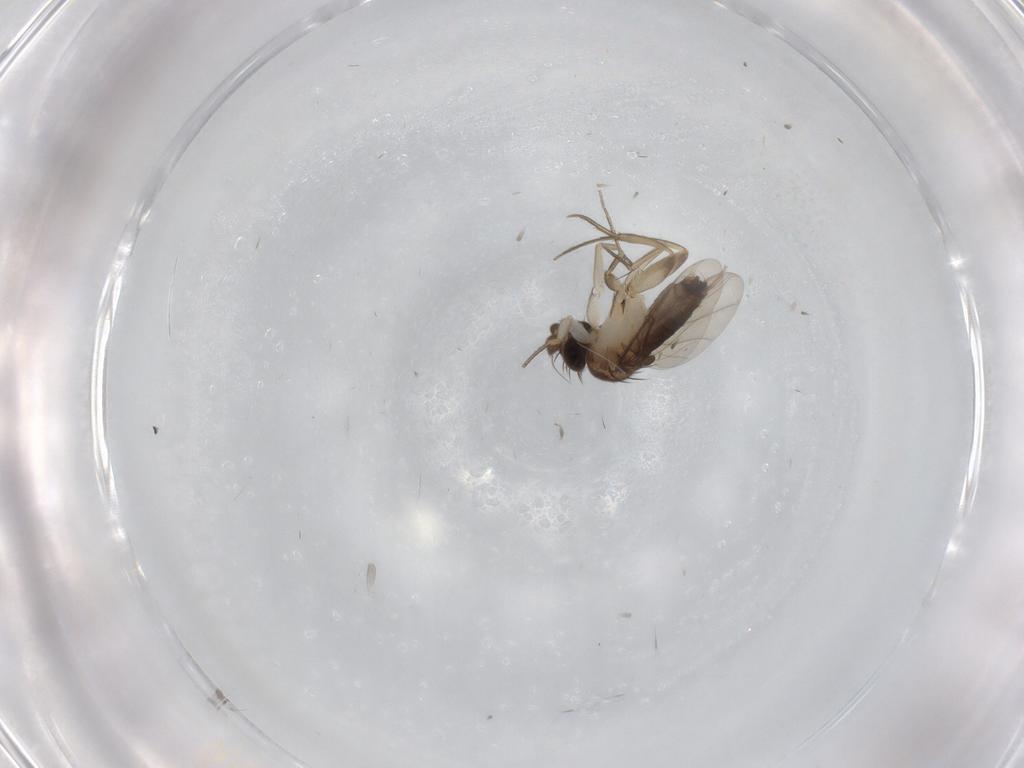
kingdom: Animalia
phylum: Arthropoda
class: Insecta
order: Diptera
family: Phoridae
